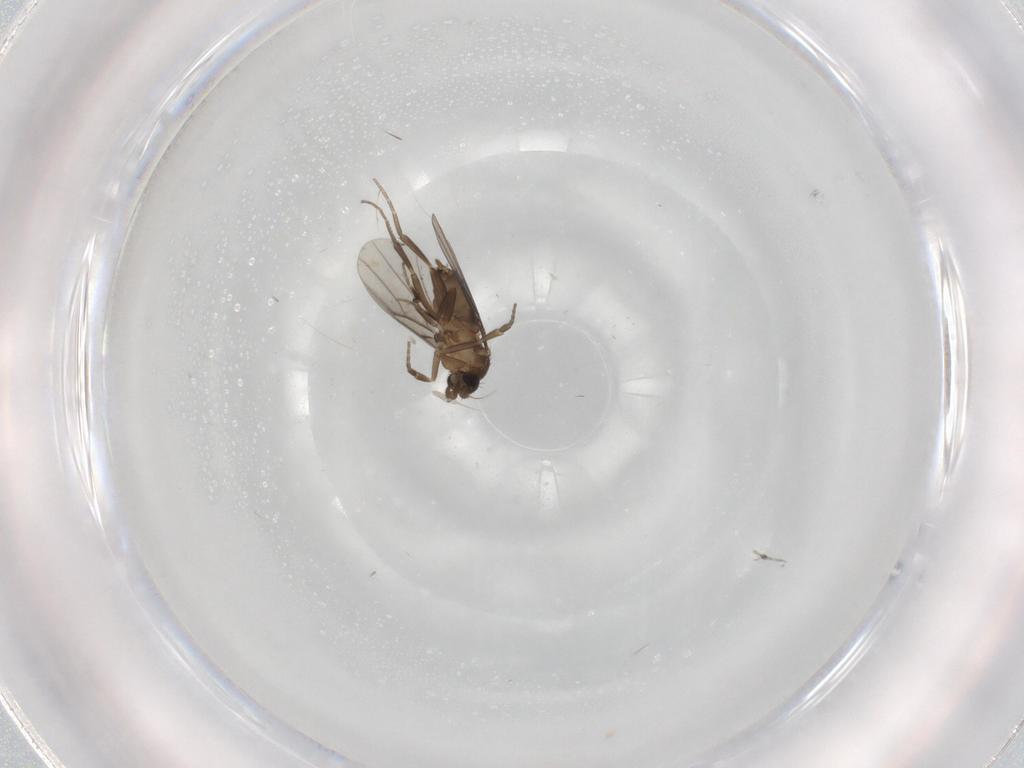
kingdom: Animalia
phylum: Arthropoda
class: Insecta
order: Diptera
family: Phoridae
